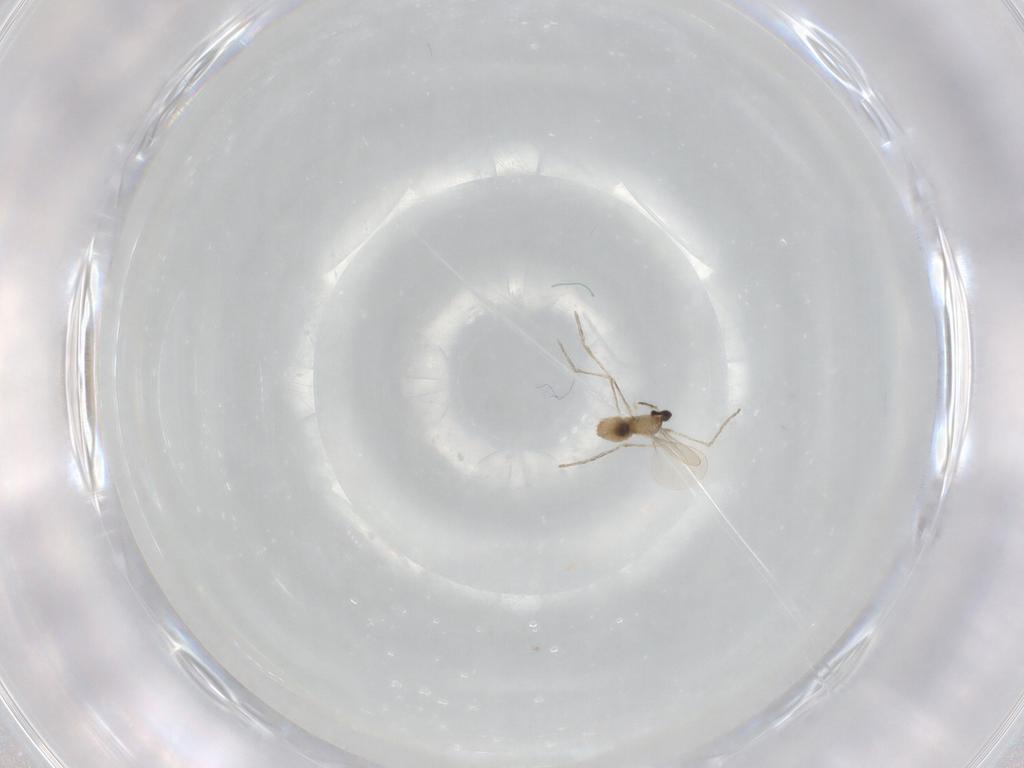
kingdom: Animalia
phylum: Arthropoda
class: Insecta
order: Diptera
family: Cecidomyiidae
